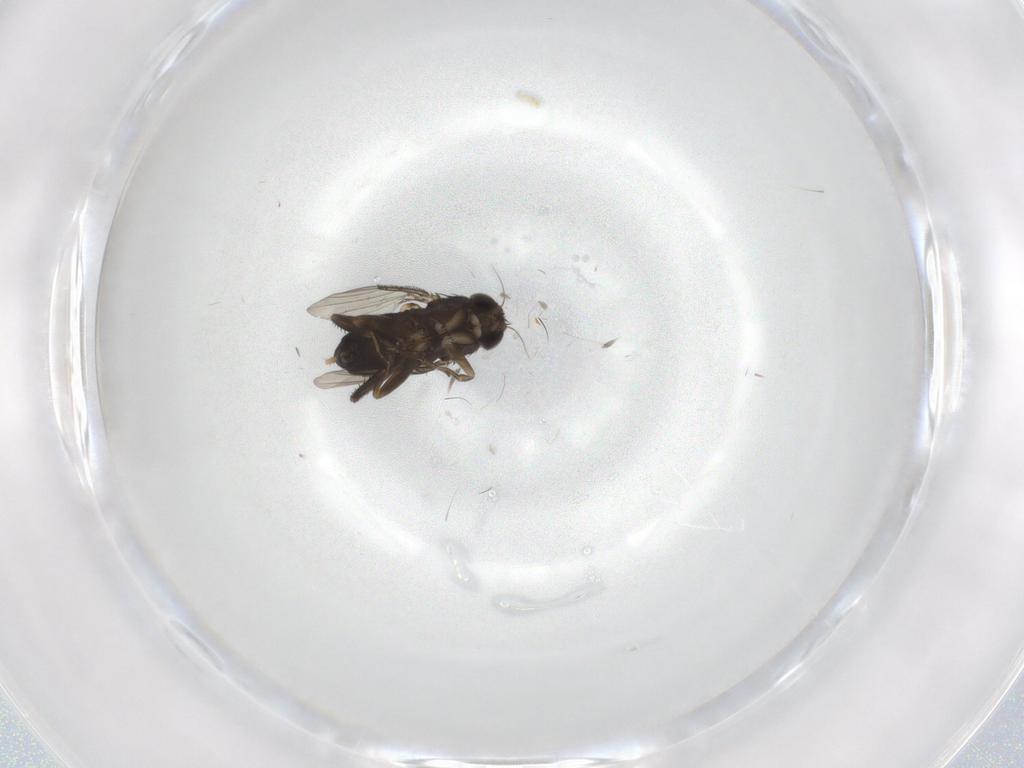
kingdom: Animalia
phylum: Arthropoda
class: Insecta
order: Diptera
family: Phoridae
